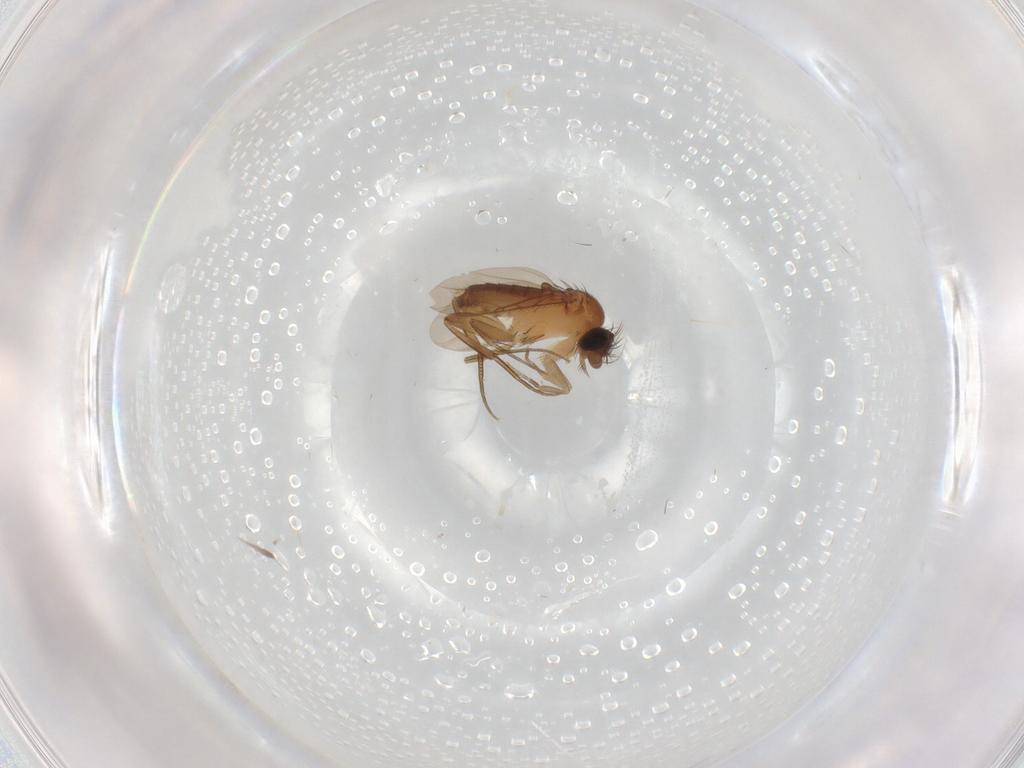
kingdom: Animalia
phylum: Arthropoda
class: Insecta
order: Diptera
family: Phoridae
